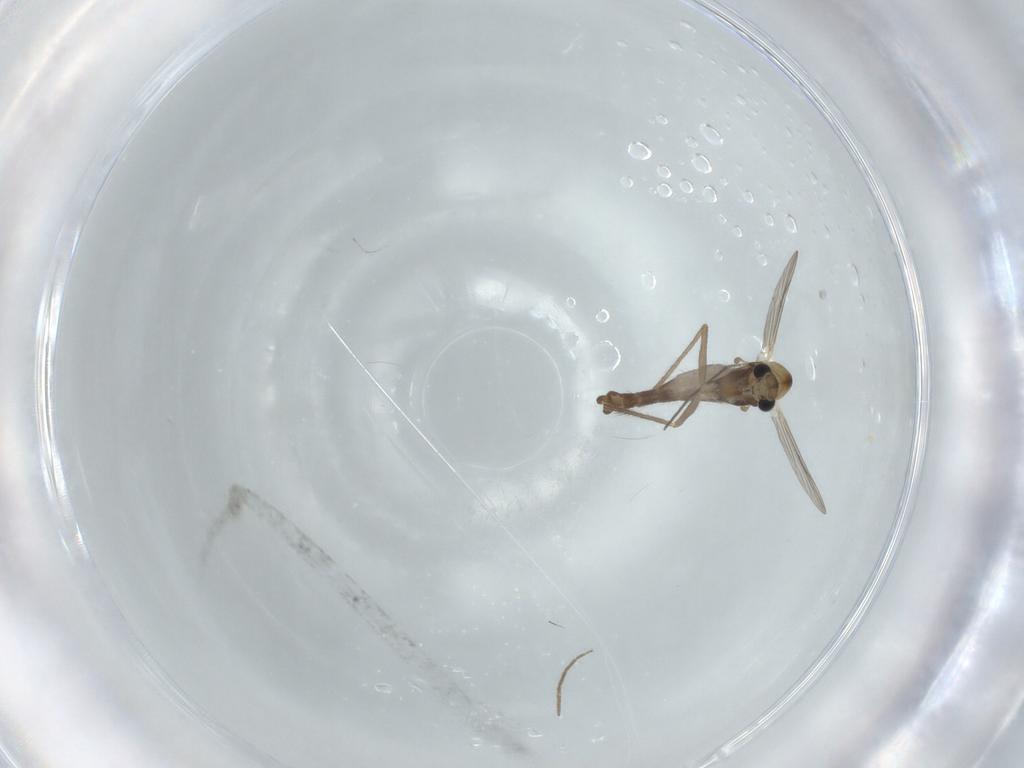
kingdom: Animalia
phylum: Arthropoda
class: Insecta
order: Diptera
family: Chironomidae
